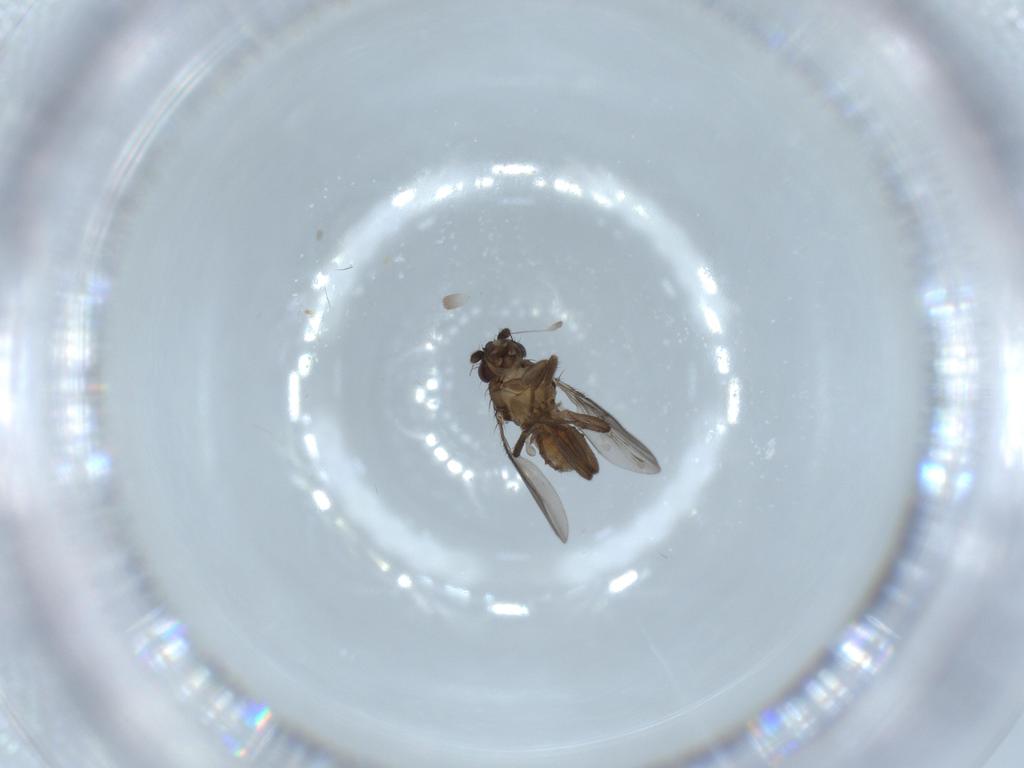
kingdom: Animalia
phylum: Arthropoda
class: Insecta
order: Diptera
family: Sphaeroceridae
